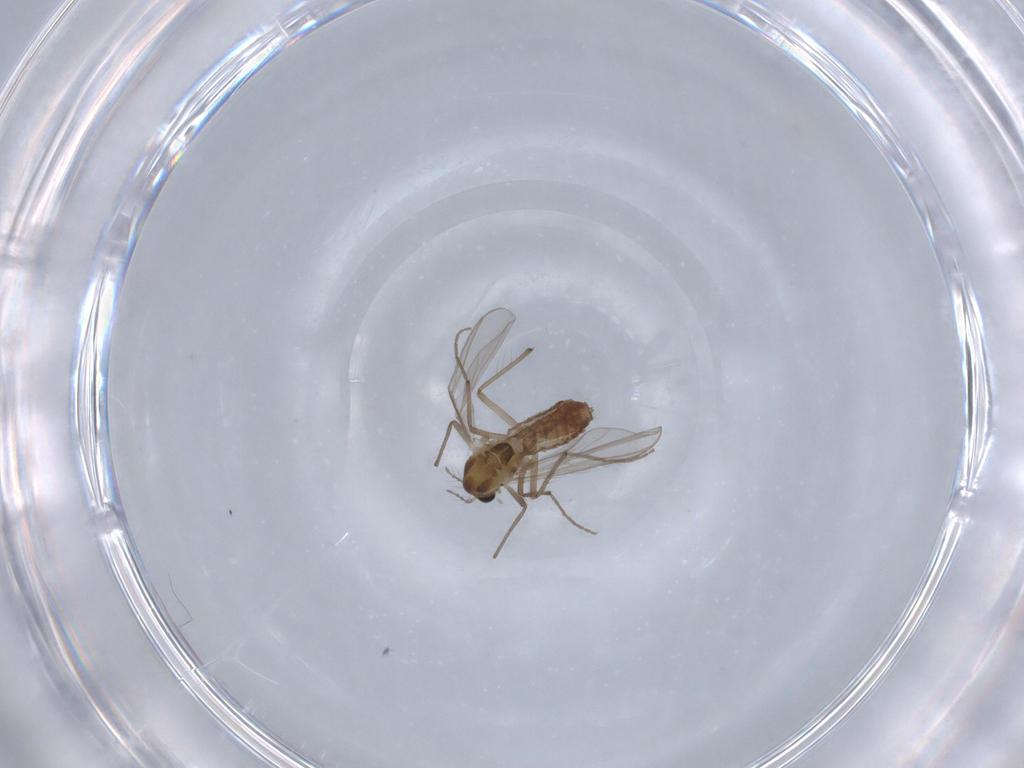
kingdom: Animalia
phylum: Arthropoda
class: Insecta
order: Diptera
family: Chironomidae
